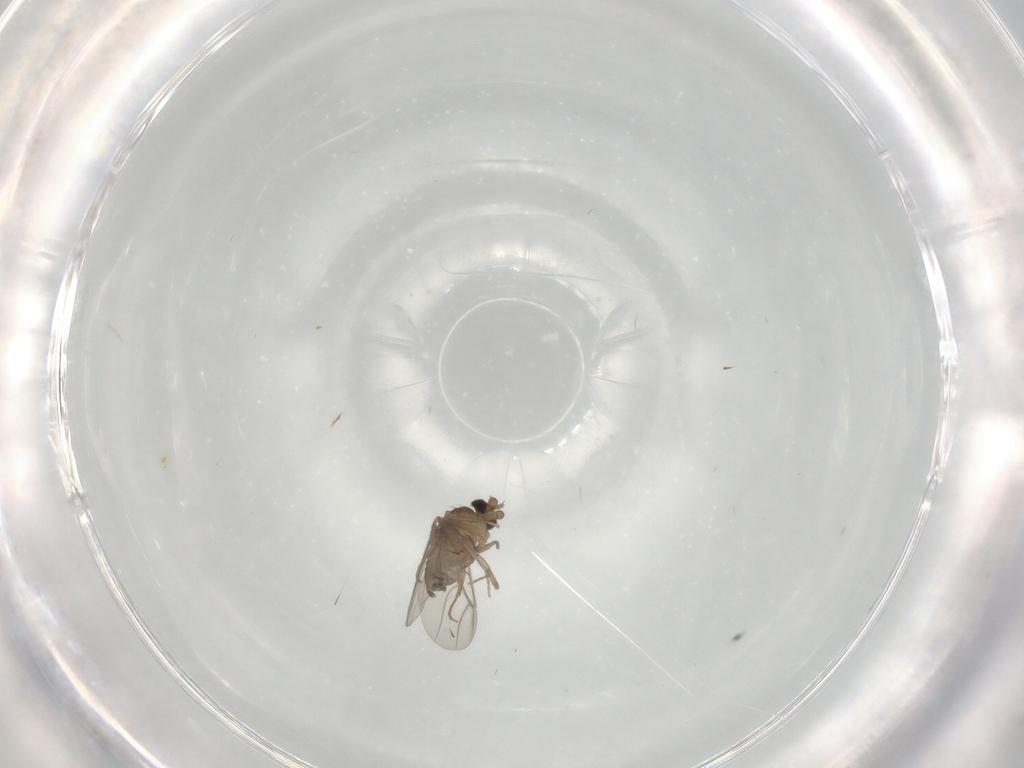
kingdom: Animalia
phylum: Arthropoda
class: Insecta
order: Diptera
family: Phoridae
